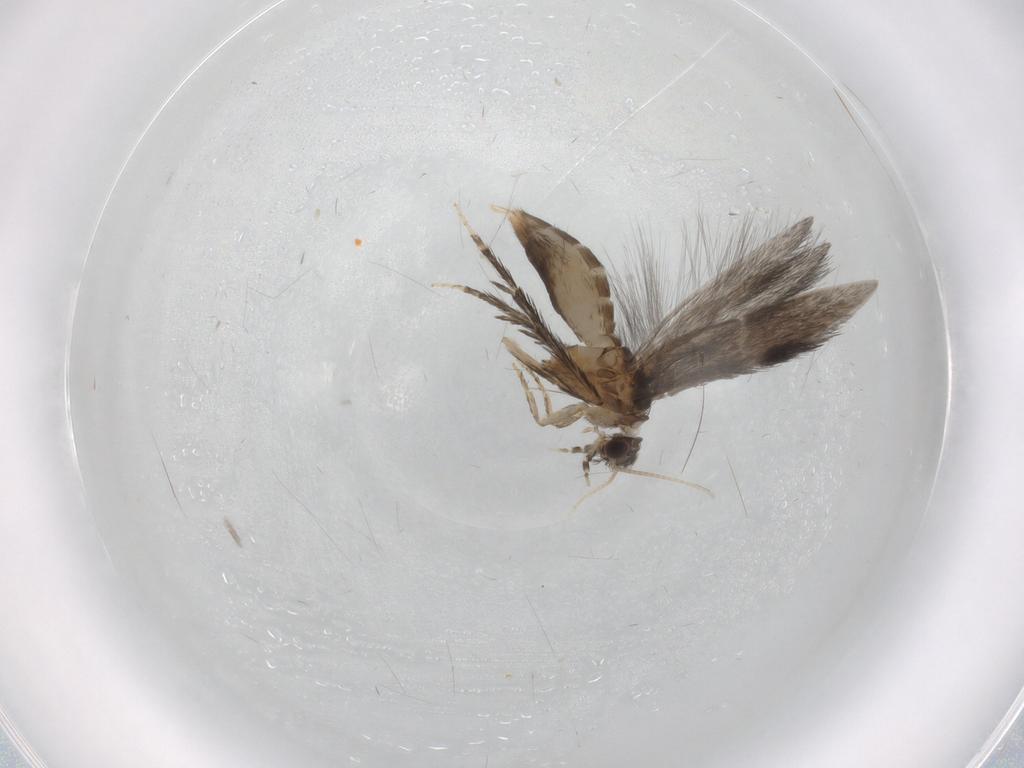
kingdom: Animalia
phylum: Arthropoda
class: Insecta
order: Trichoptera
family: Hydroptilidae
